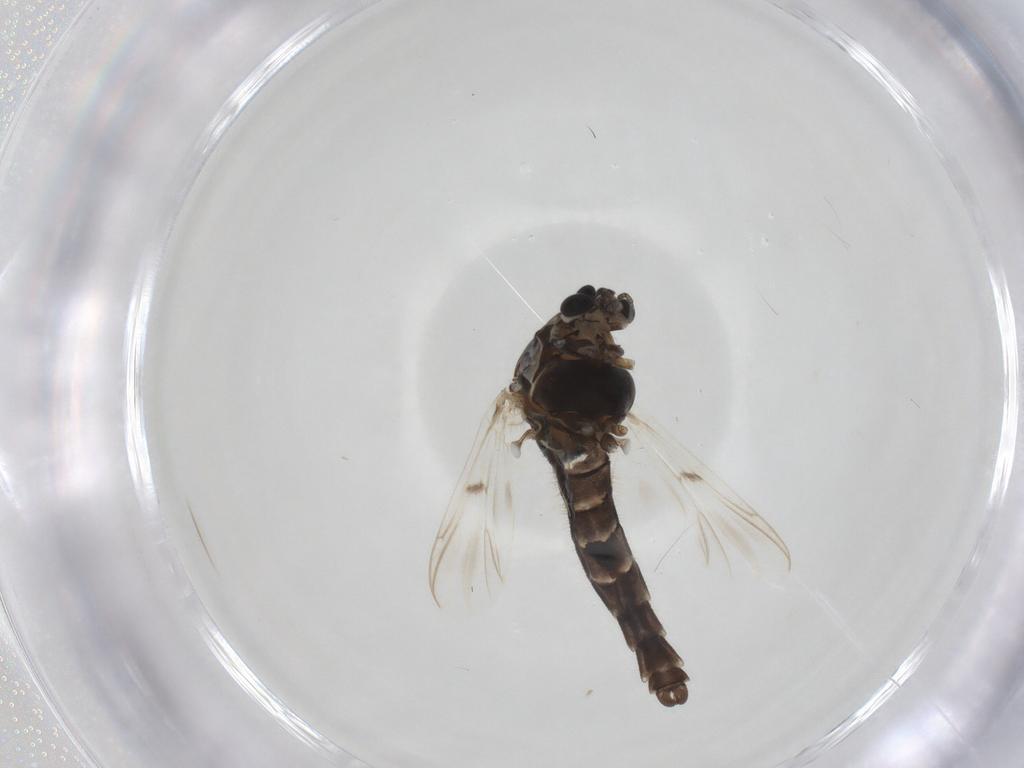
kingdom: Animalia
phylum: Arthropoda
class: Insecta
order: Diptera
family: Chironomidae
